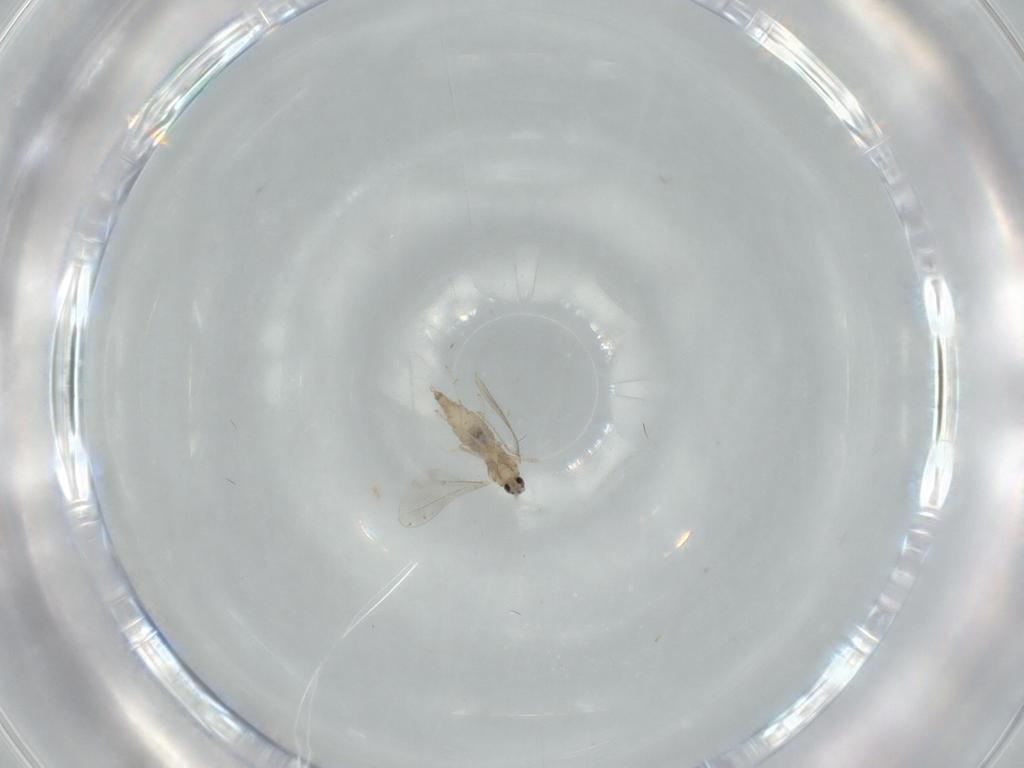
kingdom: Animalia
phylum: Arthropoda
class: Insecta
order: Diptera
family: Cecidomyiidae
